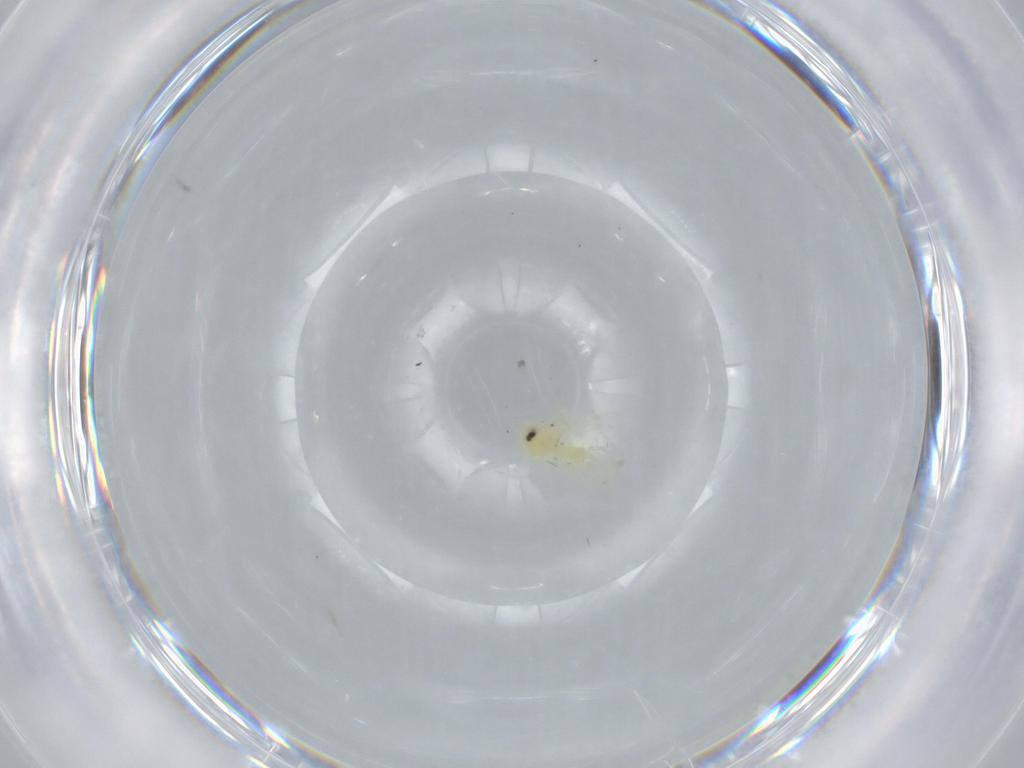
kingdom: Animalia
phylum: Arthropoda
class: Insecta
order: Hemiptera
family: Aleyrodidae
